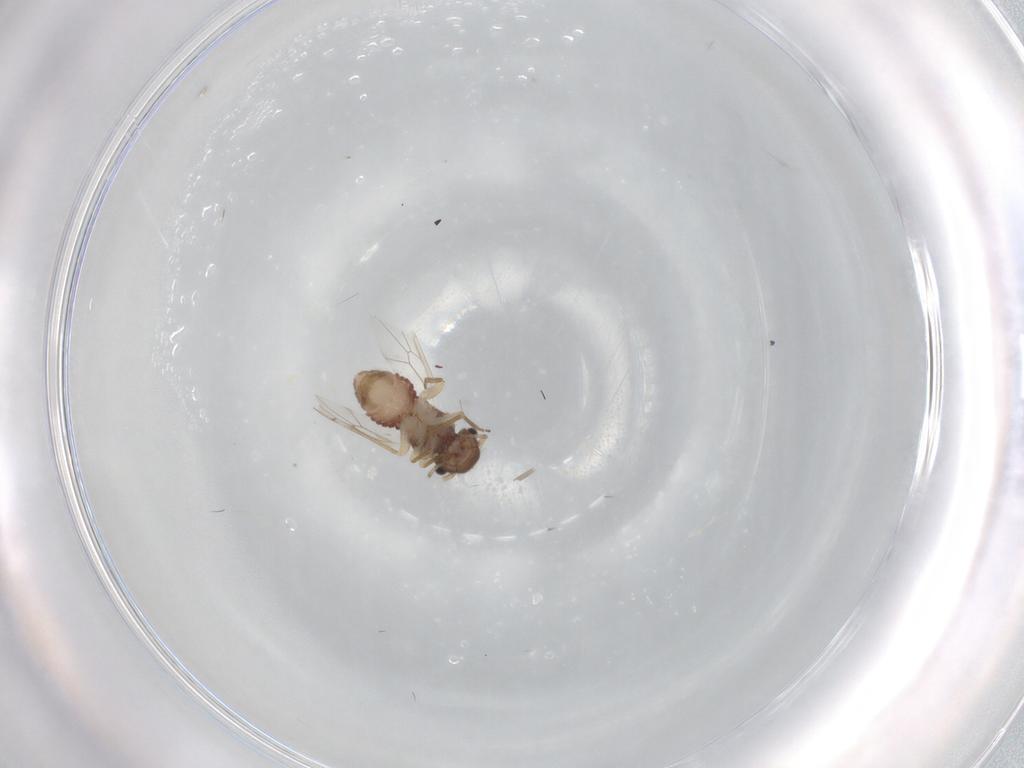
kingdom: Animalia
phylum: Arthropoda
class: Insecta
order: Psocodea
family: Peripsocidae
